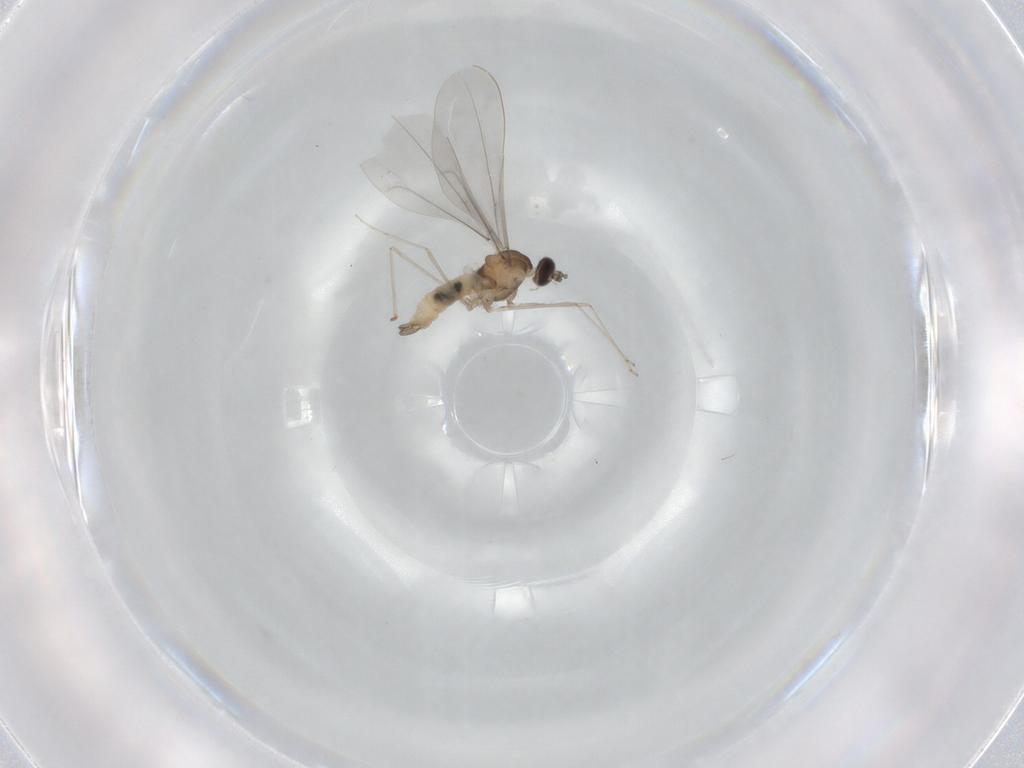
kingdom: Animalia
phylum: Arthropoda
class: Insecta
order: Diptera
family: Cecidomyiidae
